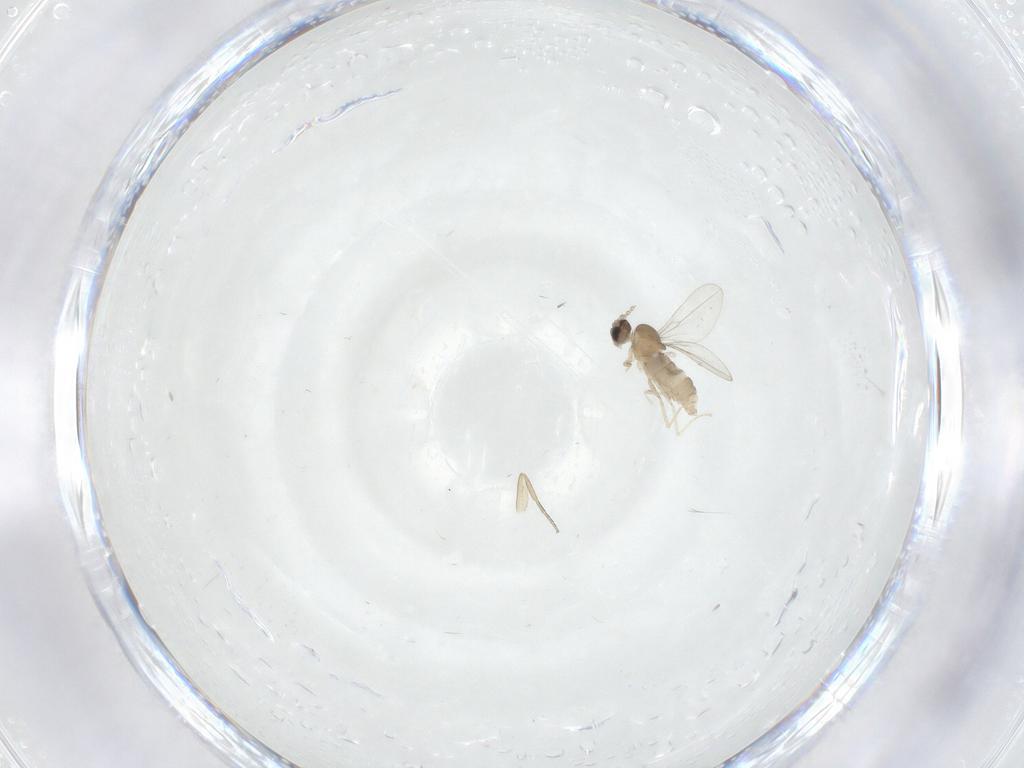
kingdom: Animalia
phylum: Arthropoda
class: Insecta
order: Diptera
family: Cecidomyiidae
